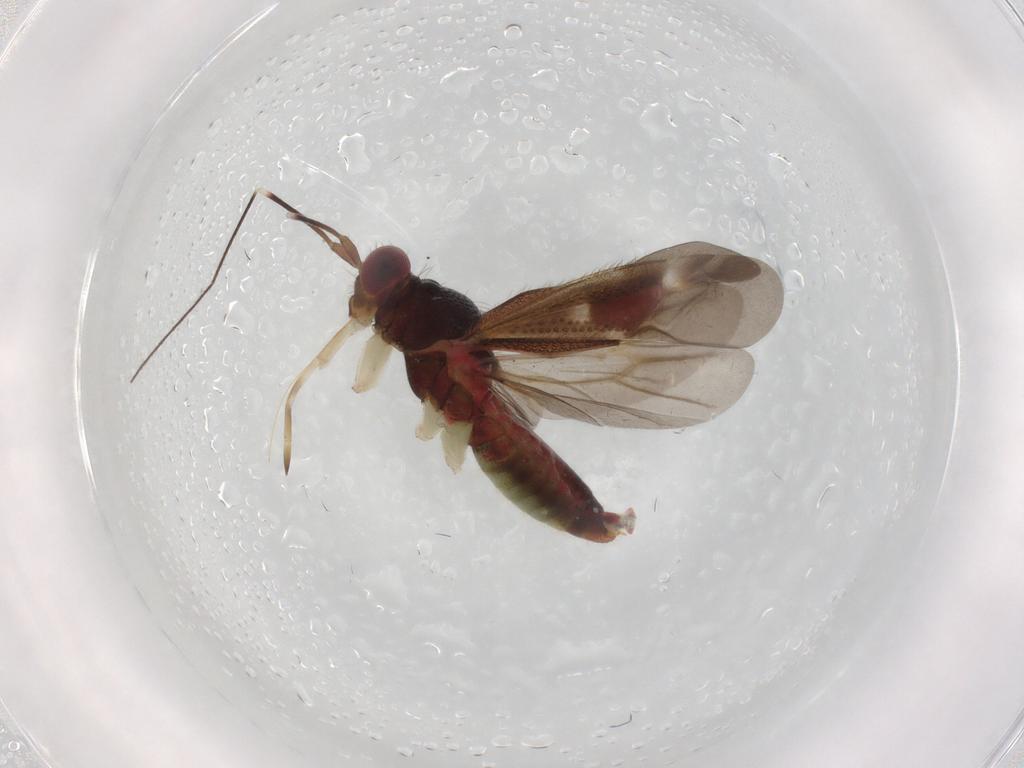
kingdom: Animalia
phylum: Arthropoda
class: Insecta
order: Hemiptera
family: Miridae
